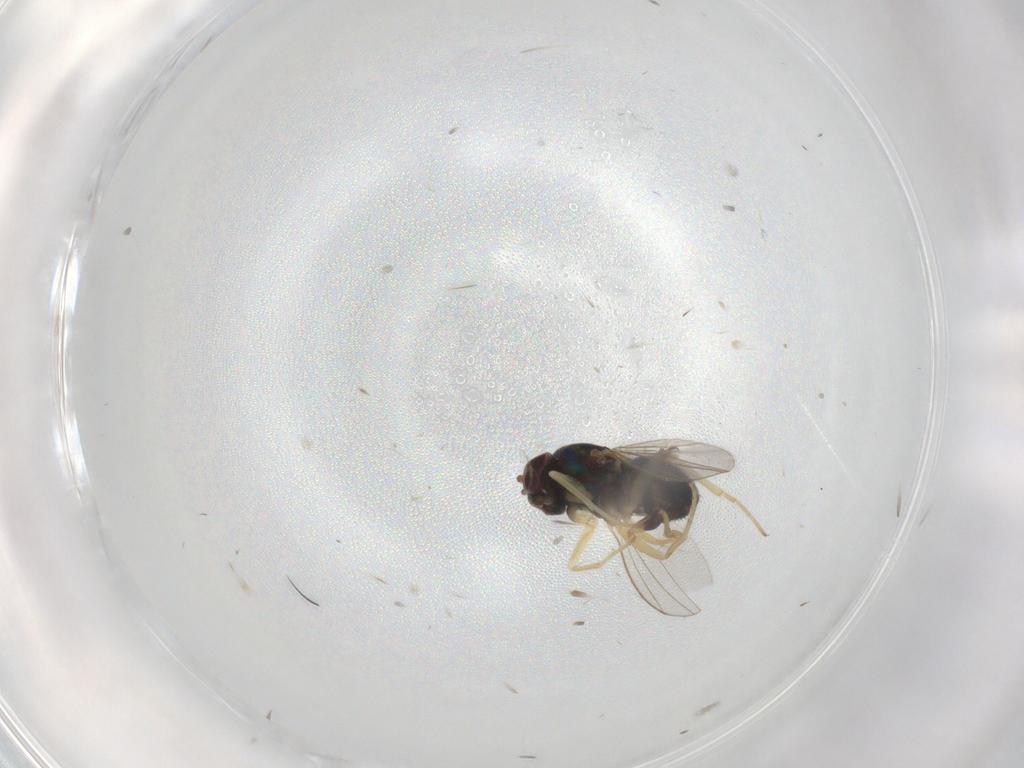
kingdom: Animalia
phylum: Arthropoda
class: Insecta
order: Diptera
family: Dolichopodidae
